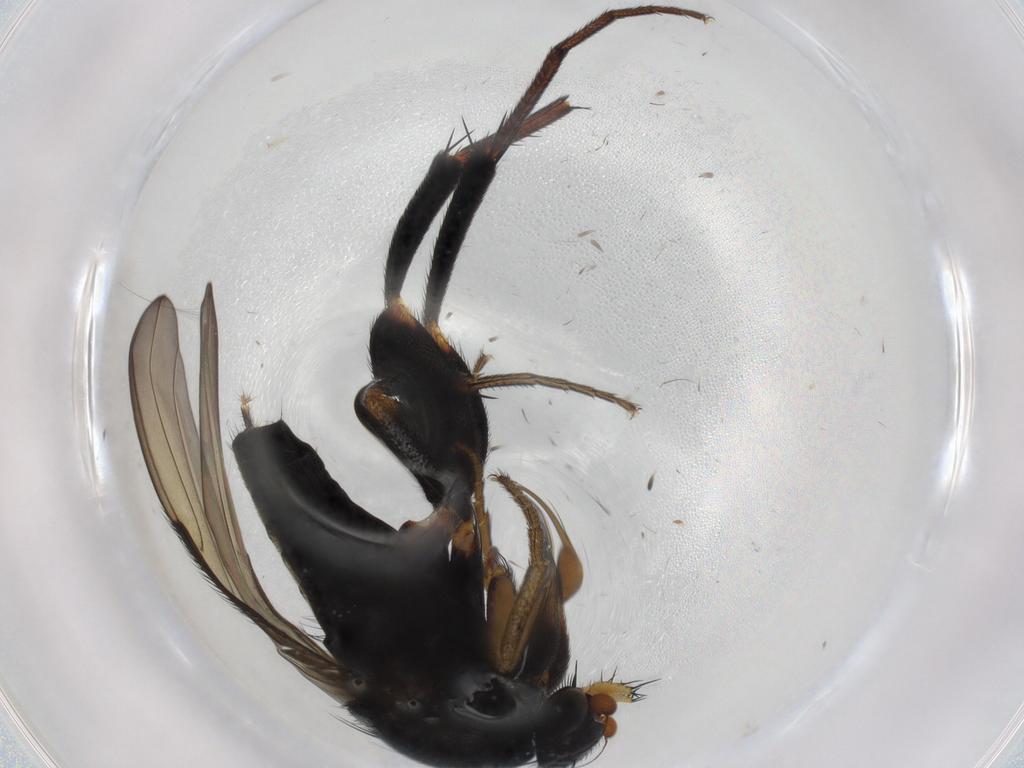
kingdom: Animalia
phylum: Arthropoda
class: Insecta
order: Diptera
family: Phoridae
